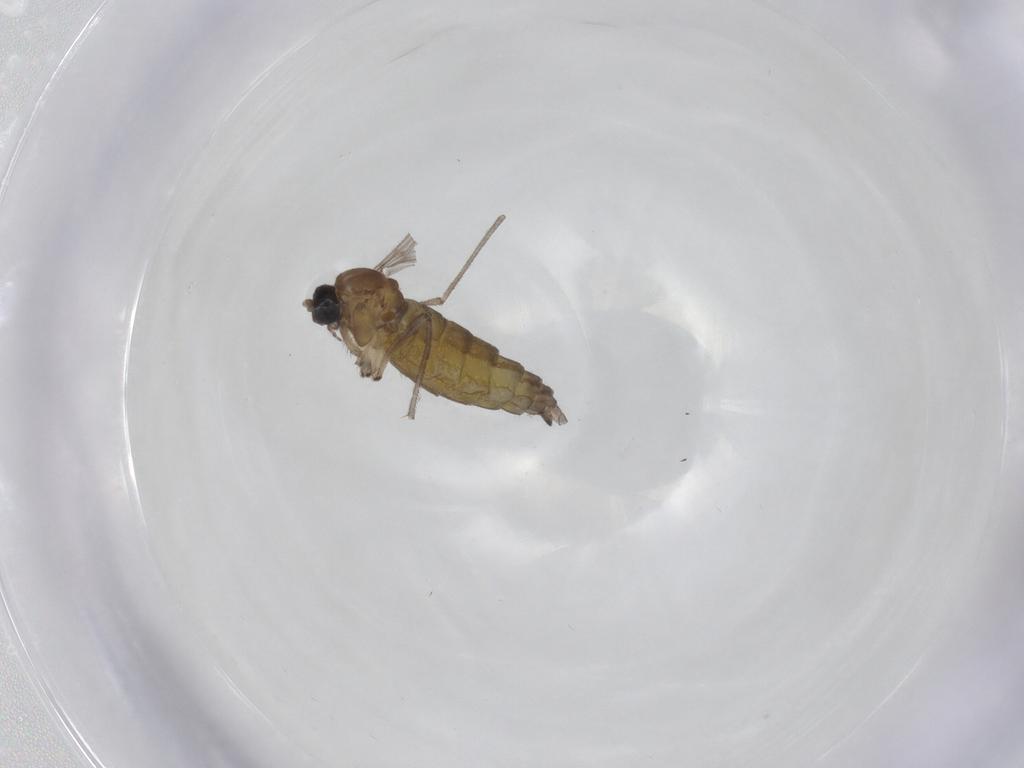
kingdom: Animalia
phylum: Arthropoda
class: Insecta
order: Diptera
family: Sciaridae
